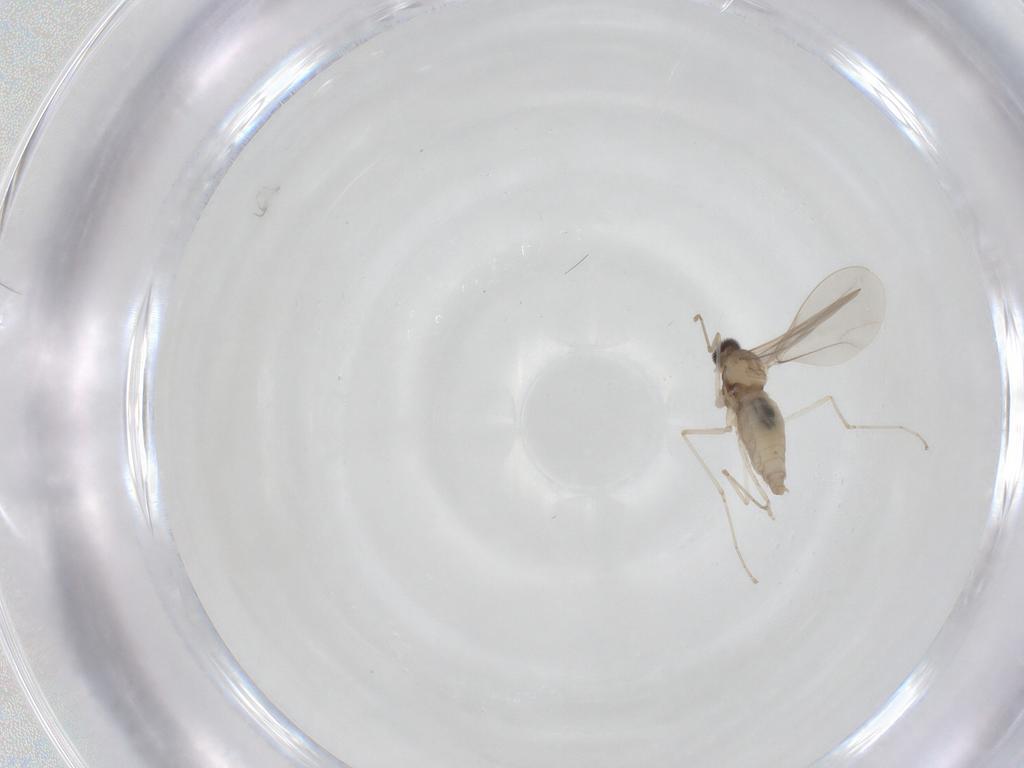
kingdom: Animalia
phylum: Arthropoda
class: Insecta
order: Diptera
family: Cecidomyiidae
